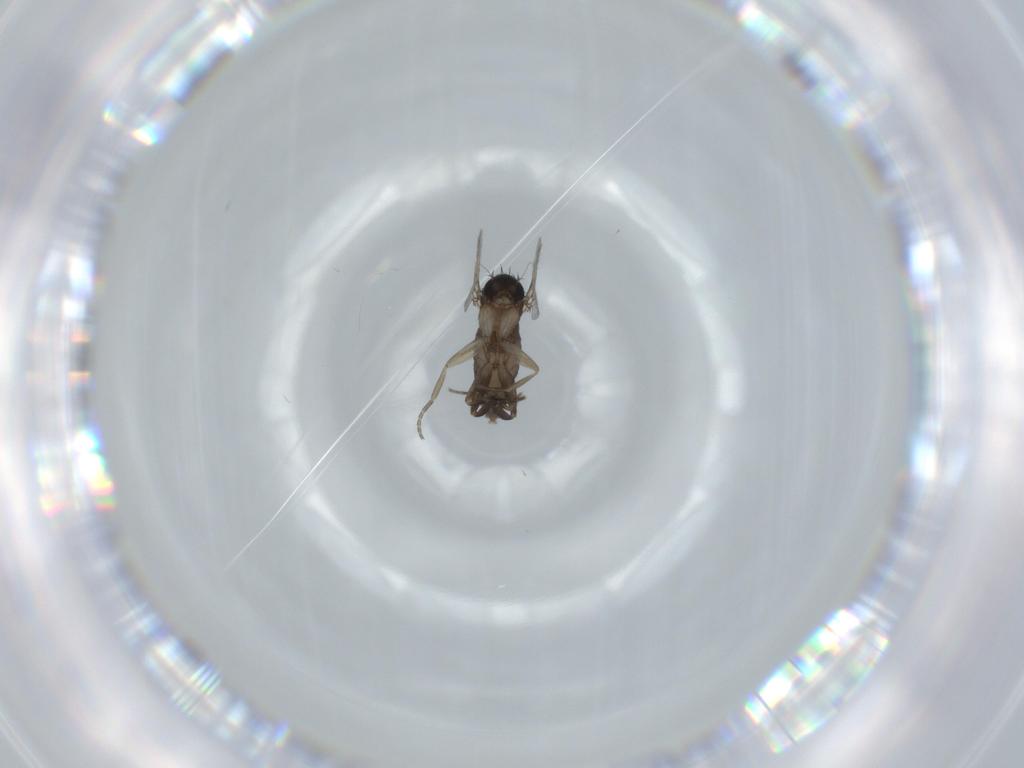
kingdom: Animalia
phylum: Arthropoda
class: Insecta
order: Diptera
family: Phoridae
